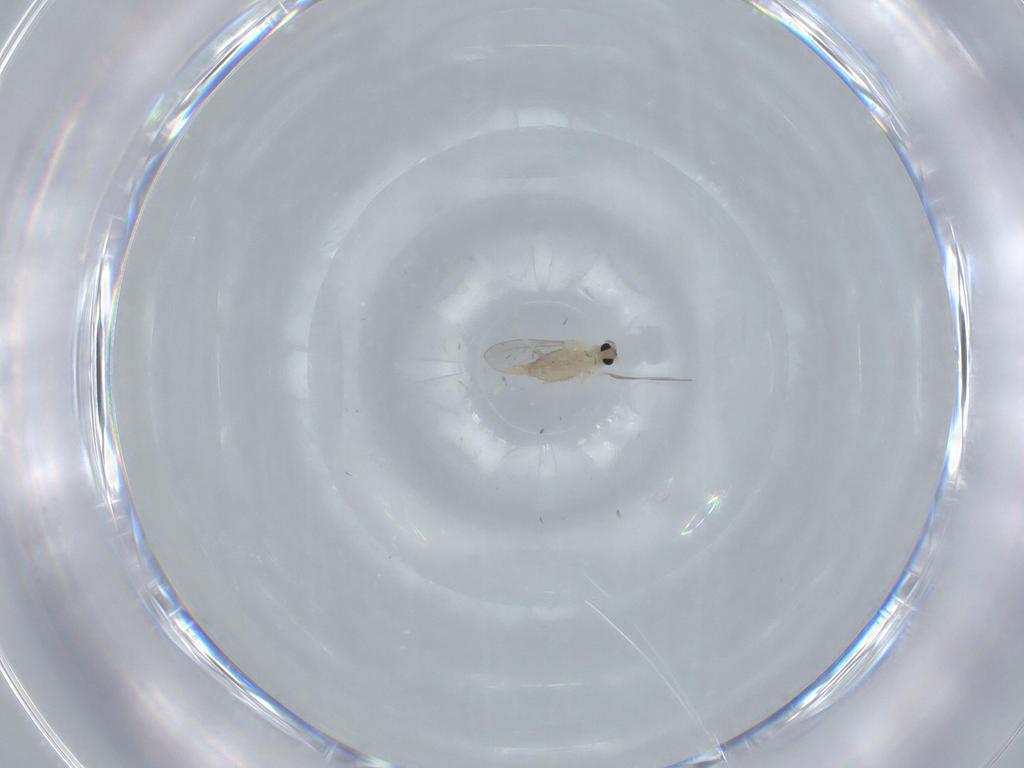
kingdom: Animalia
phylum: Arthropoda
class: Insecta
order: Diptera
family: Cecidomyiidae
